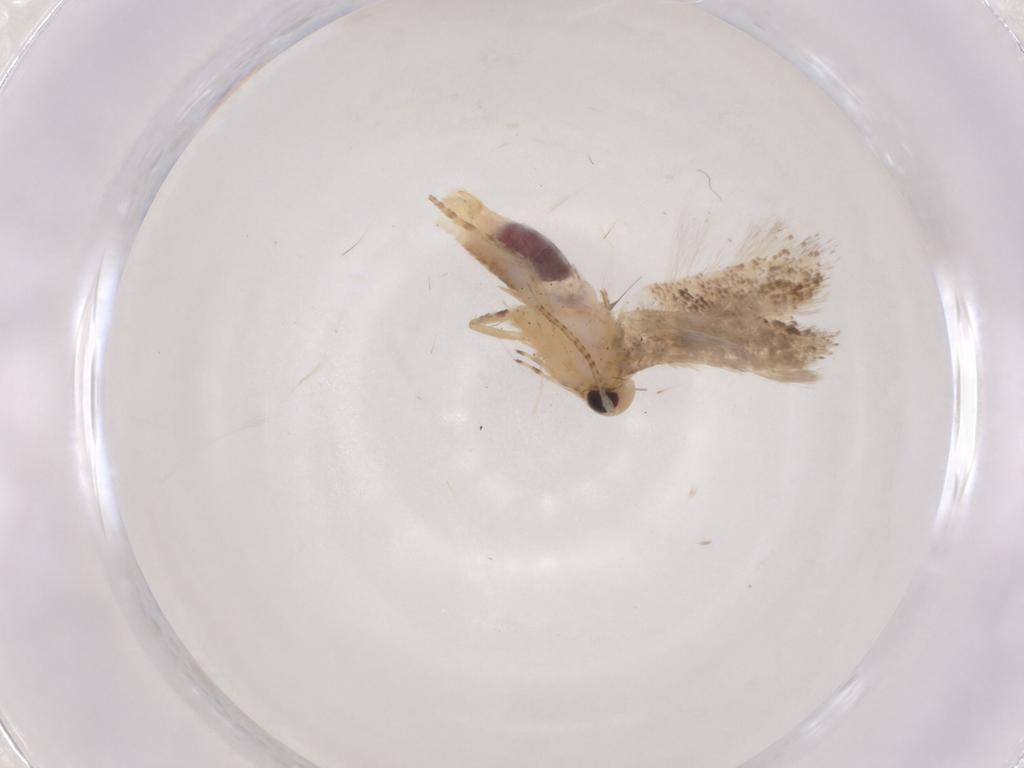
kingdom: Animalia
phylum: Arthropoda
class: Insecta
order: Lepidoptera
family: Gelechiidae
